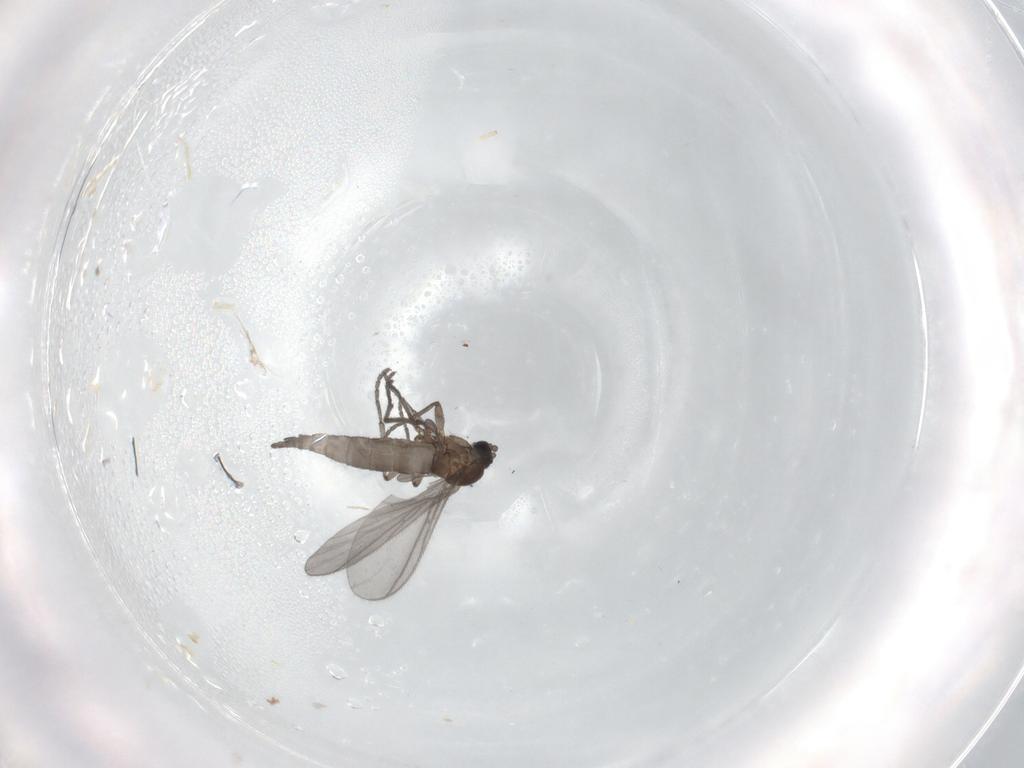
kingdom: Animalia
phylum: Arthropoda
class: Insecta
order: Diptera
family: Sciaridae
